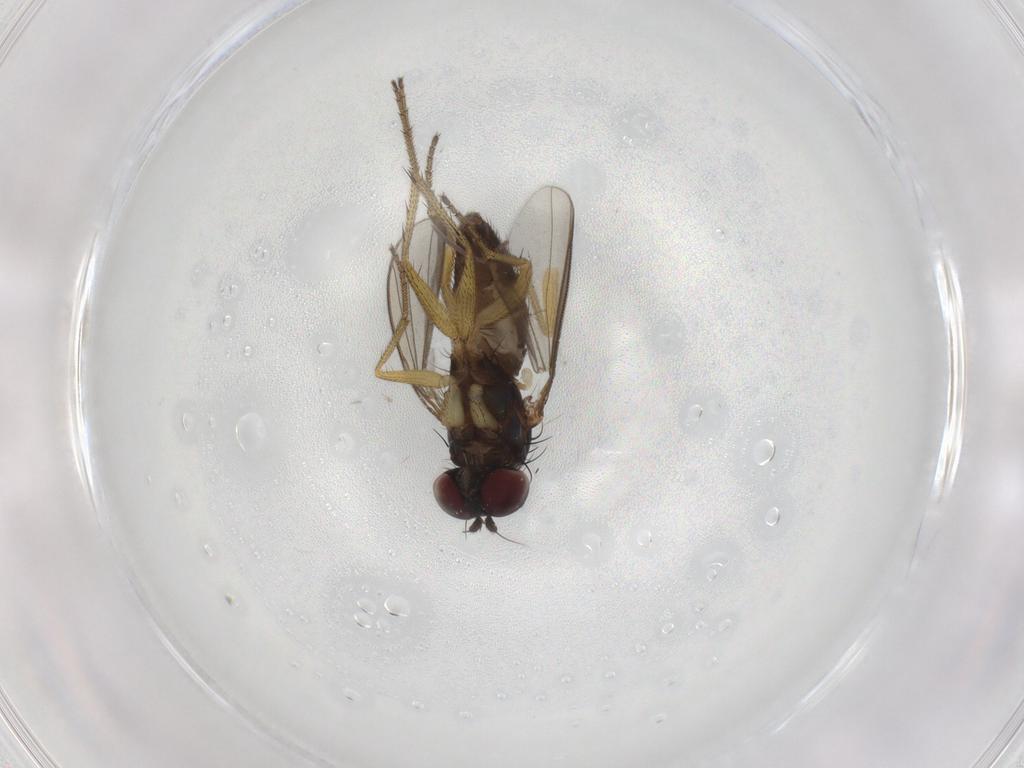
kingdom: Animalia
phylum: Arthropoda
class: Insecta
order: Diptera
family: Dolichopodidae
